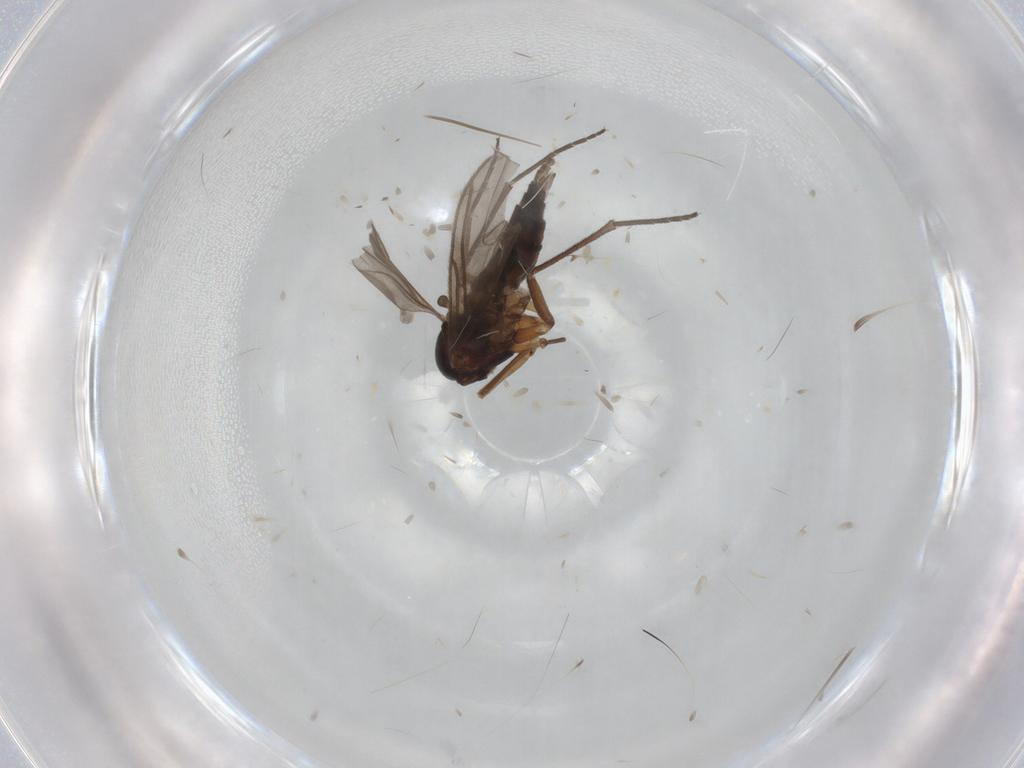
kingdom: Animalia
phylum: Arthropoda
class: Insecta
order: Diptera
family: Sciaridae
